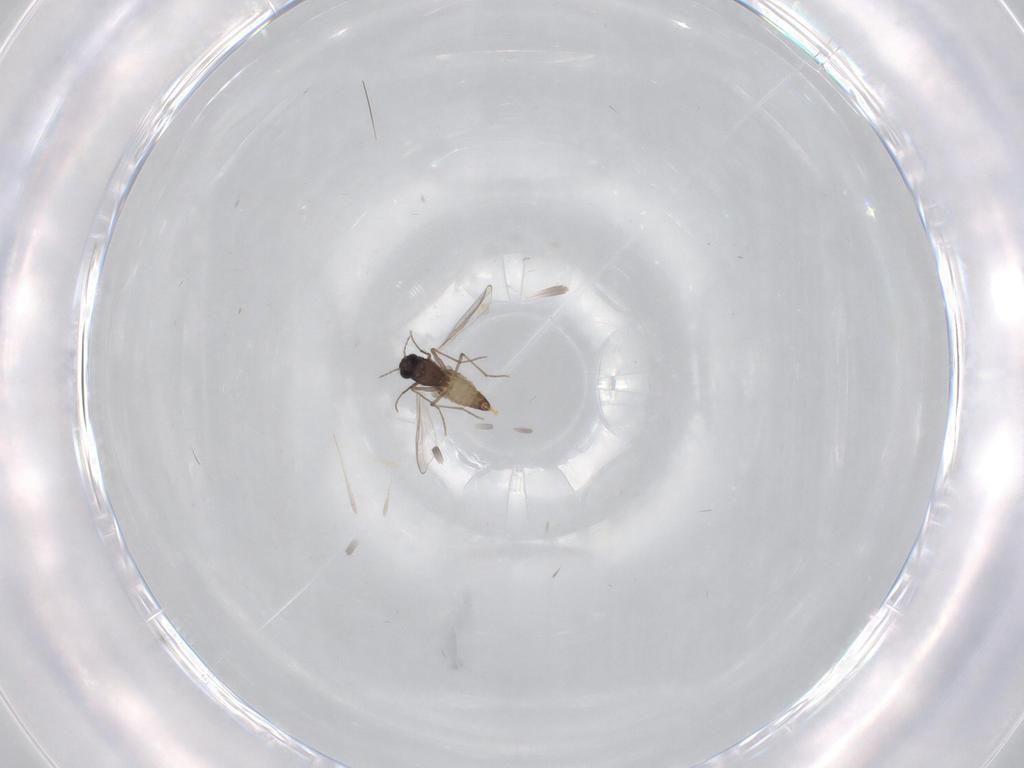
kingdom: Animalia
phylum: Arthropoda
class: Insecta
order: Diptera
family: Chironomidae
